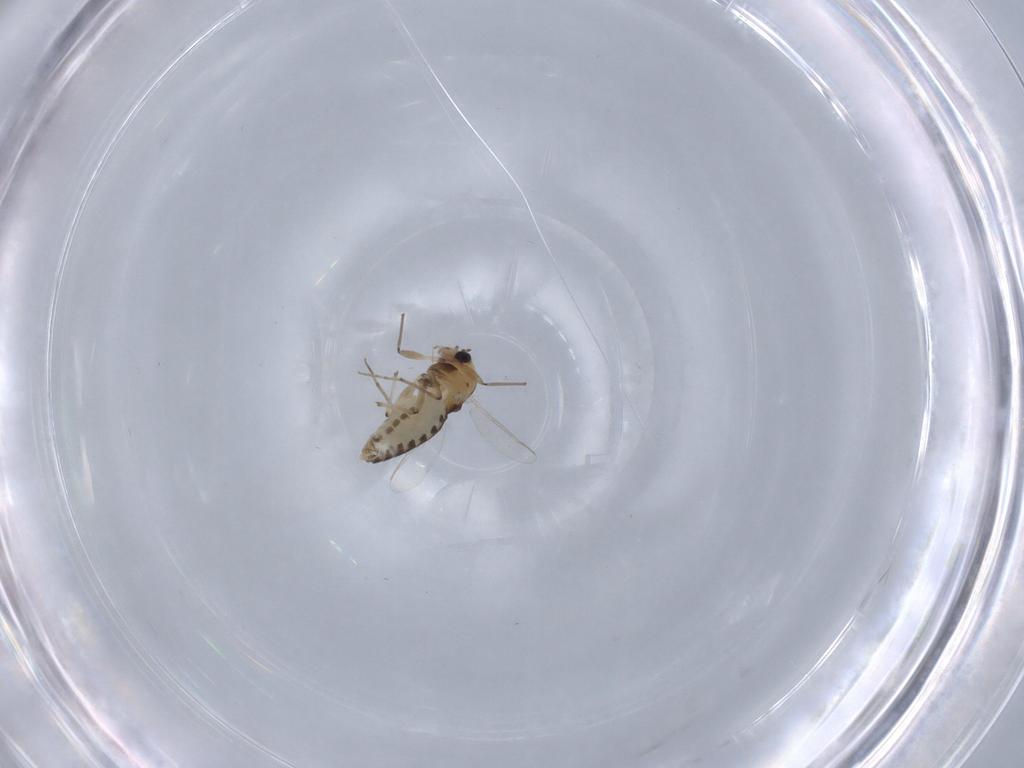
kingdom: Animalia
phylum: Arthropoda
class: Insecta
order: Diptera
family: Chironomidae
